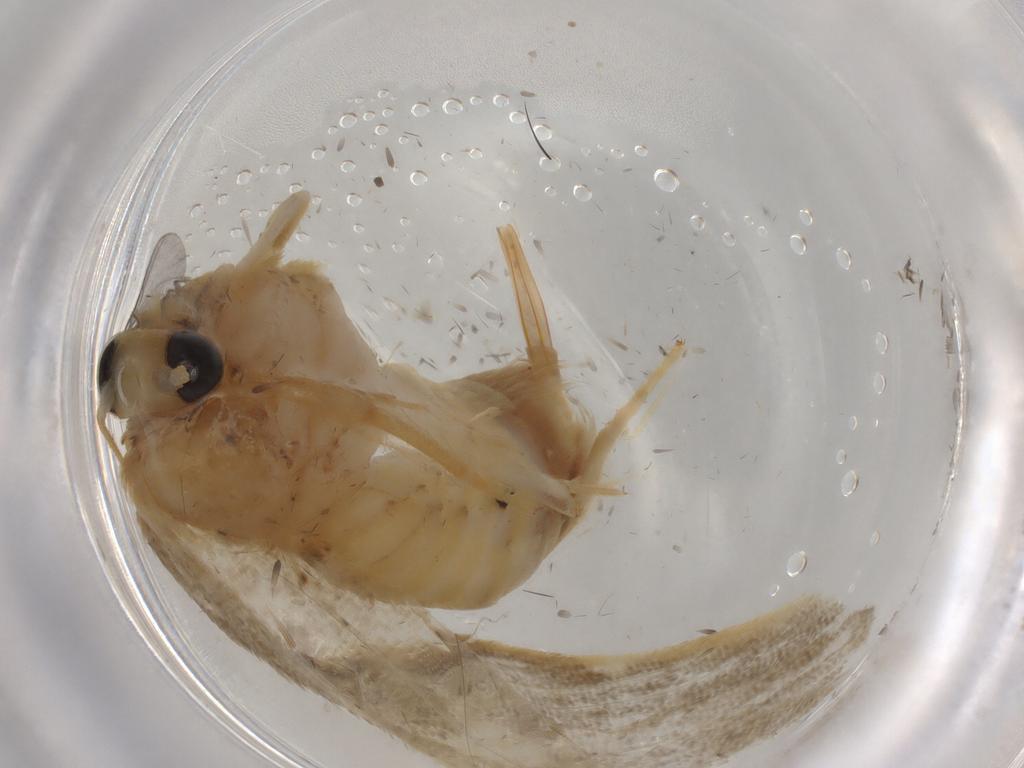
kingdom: Animalia
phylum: Arthropoda
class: Insecta
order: Lepidoptera
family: Psychidae
